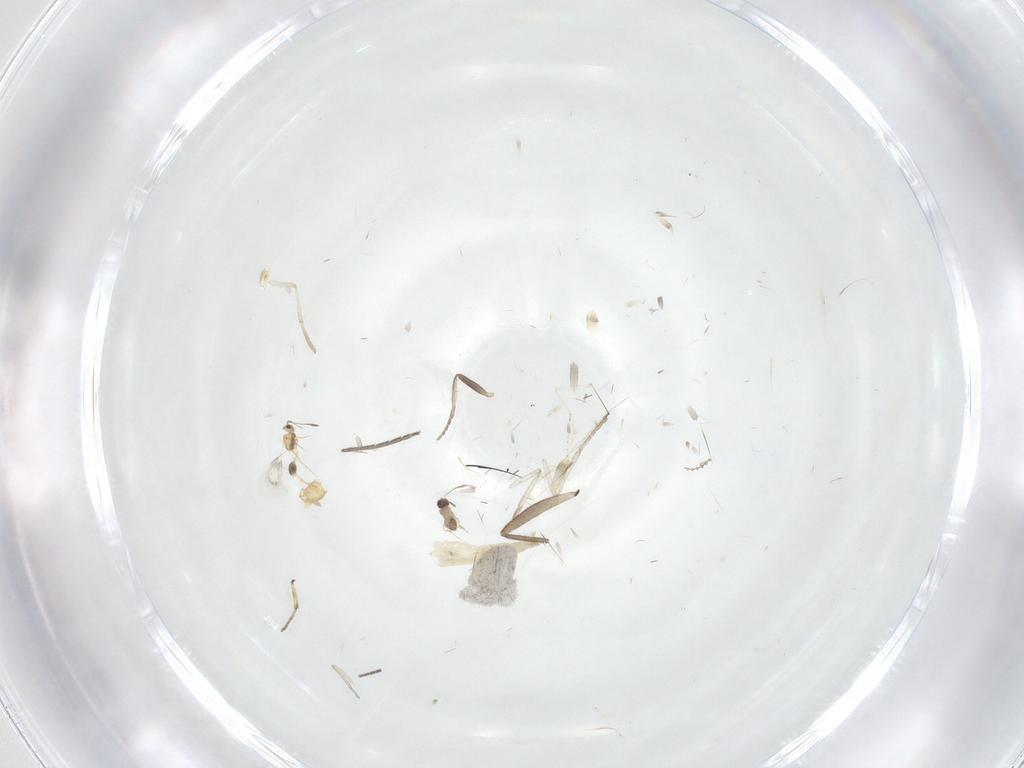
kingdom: Animalia
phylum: Arthropoda
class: Insecta
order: Diptera
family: Chironomidae
